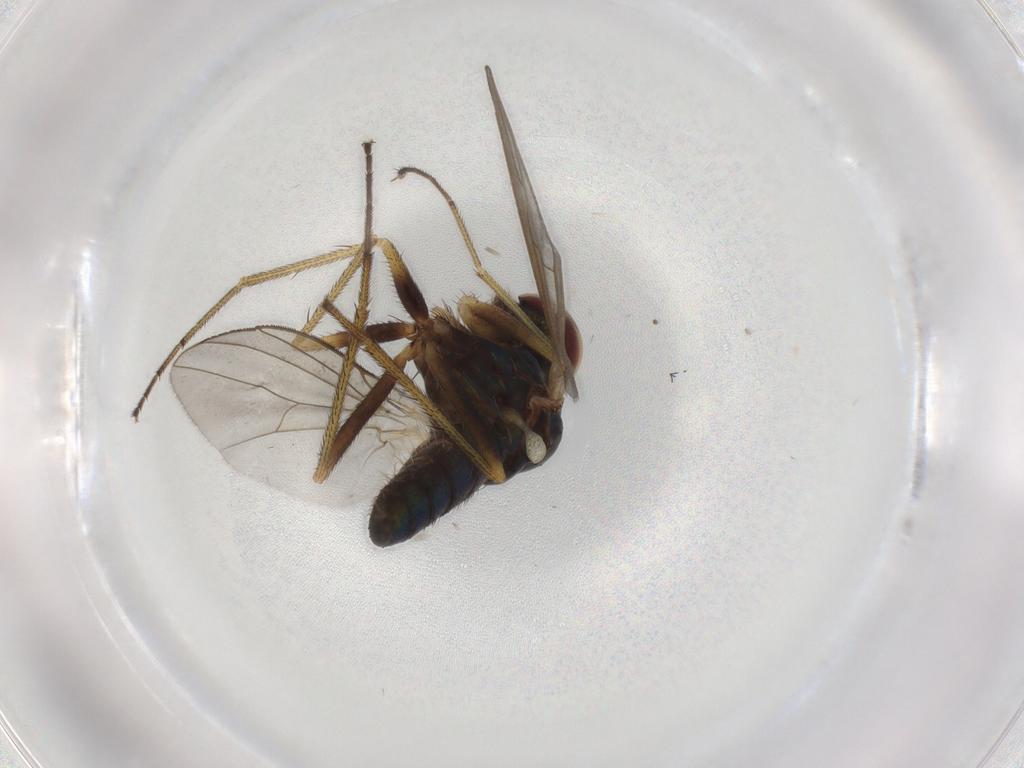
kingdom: Animalia
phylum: Arthropoda
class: Insecta
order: Diptera
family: Dolichopodidae
